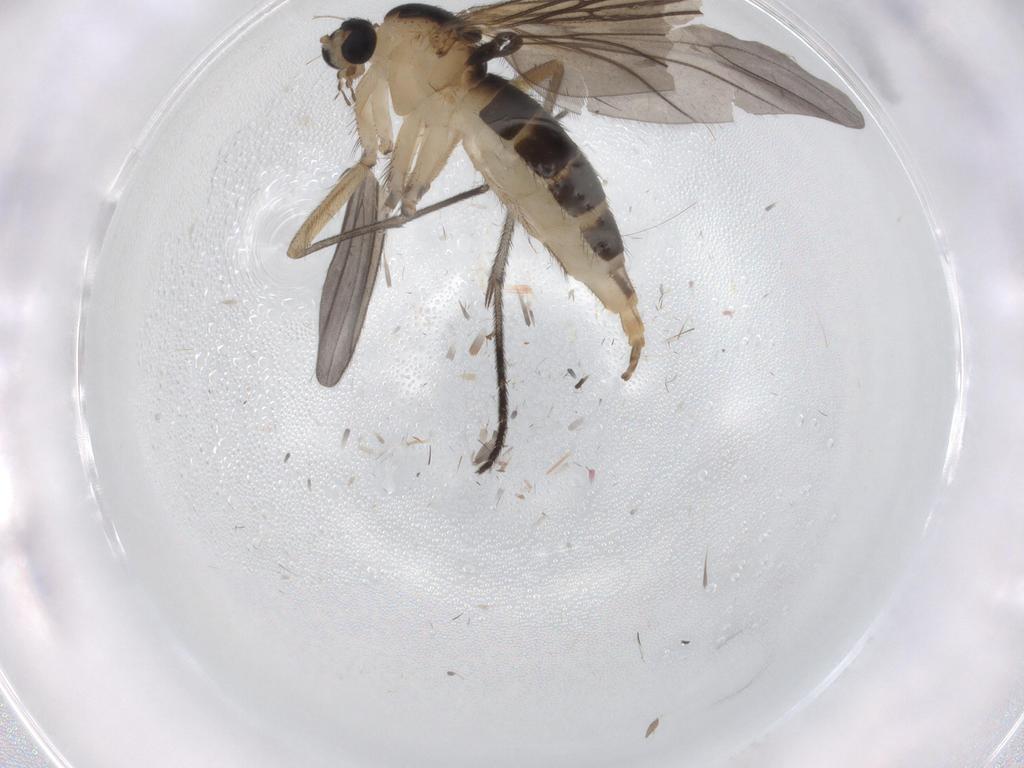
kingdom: Animalia
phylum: Arthropoda
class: Insecta
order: Diptera
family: Sciaridae
